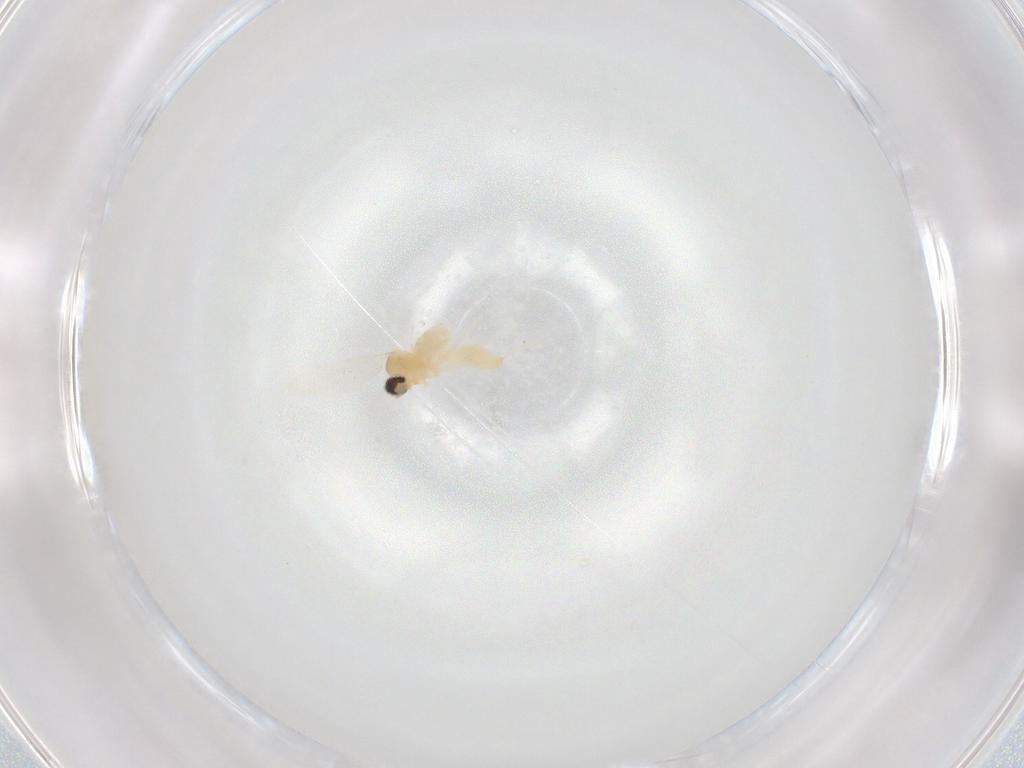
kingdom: Animalia
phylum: Arthropoda
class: Insecta
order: Diptera
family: Cecidomyiidae
